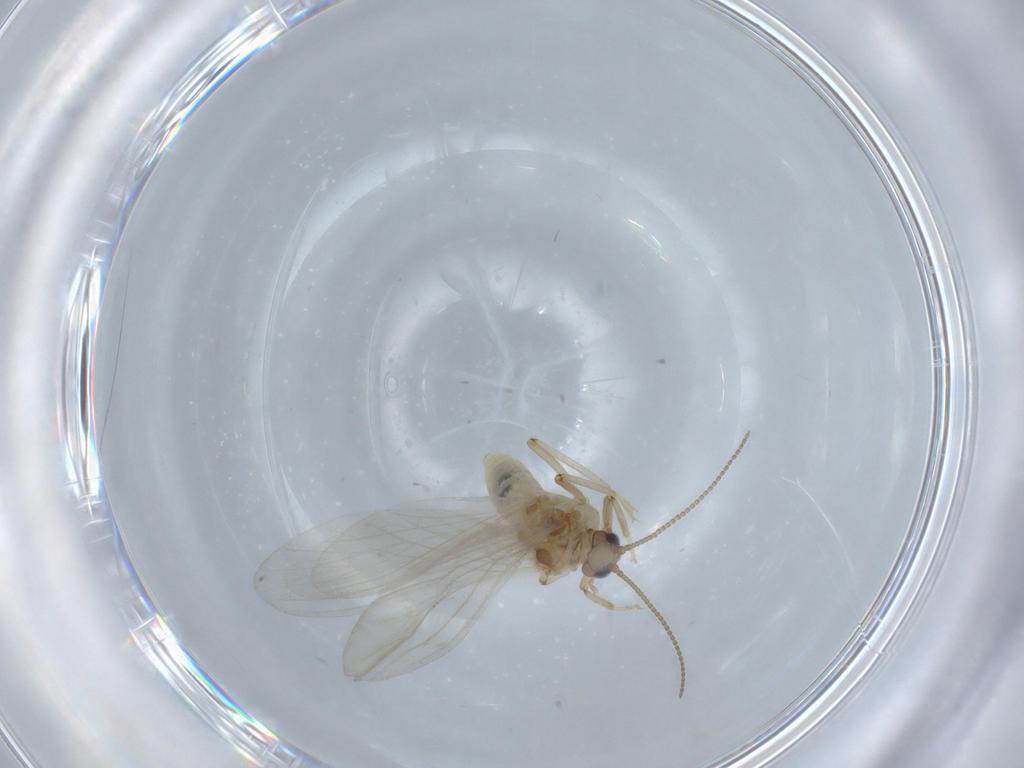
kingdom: Animalia
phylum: Arthropoda
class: Insecta
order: Neuroptera
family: Coniopterygidae
